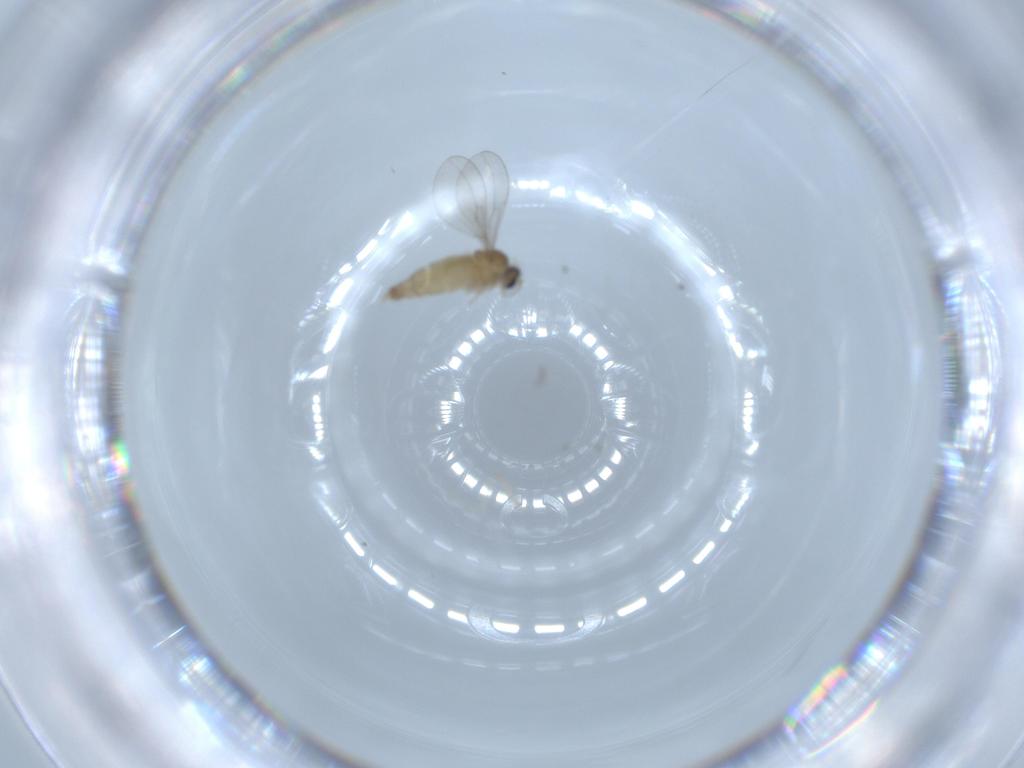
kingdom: Animalia
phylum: Arthropoda
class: Insecta
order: Diptera
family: Cecidomyiidae
